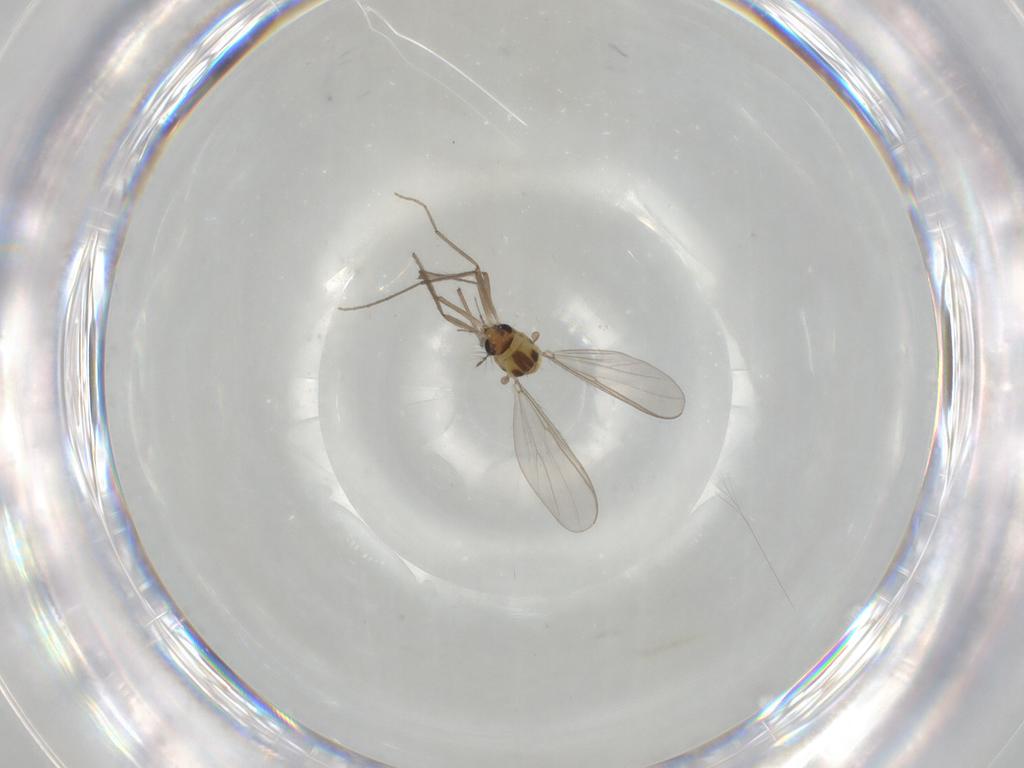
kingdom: Animalia
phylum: Arthropoda
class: Insecta
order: Diptera
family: Chironomidae
